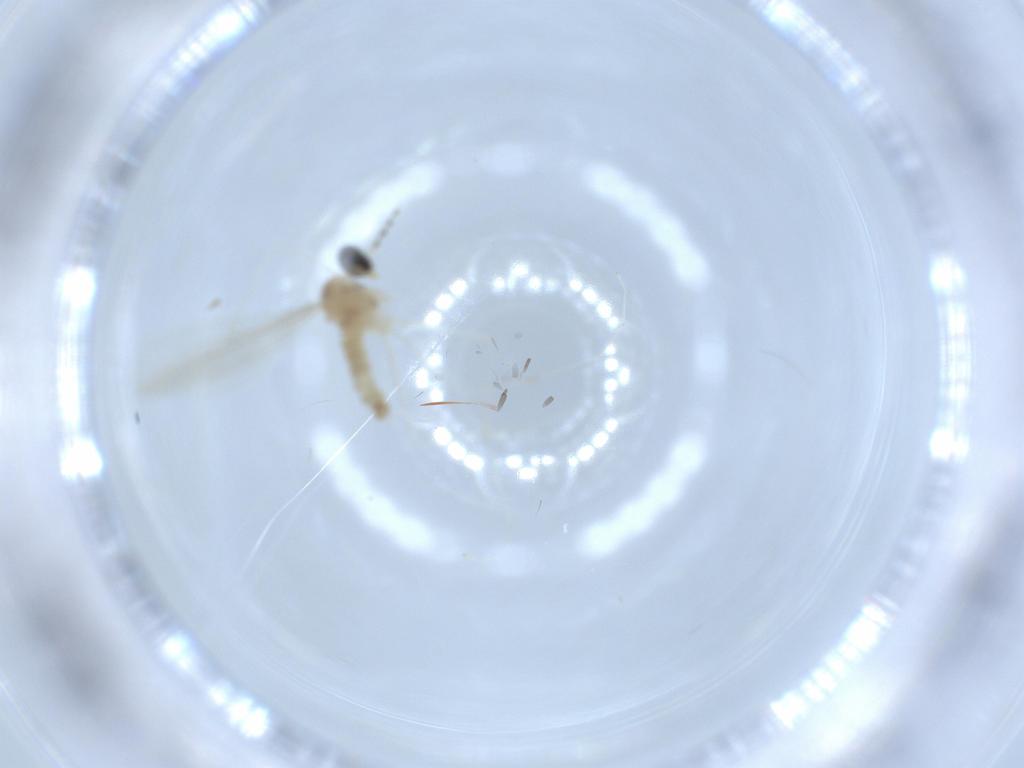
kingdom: Animalia
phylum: Arthropoda
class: Insecta
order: Diptera
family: Cecidomyiidae
